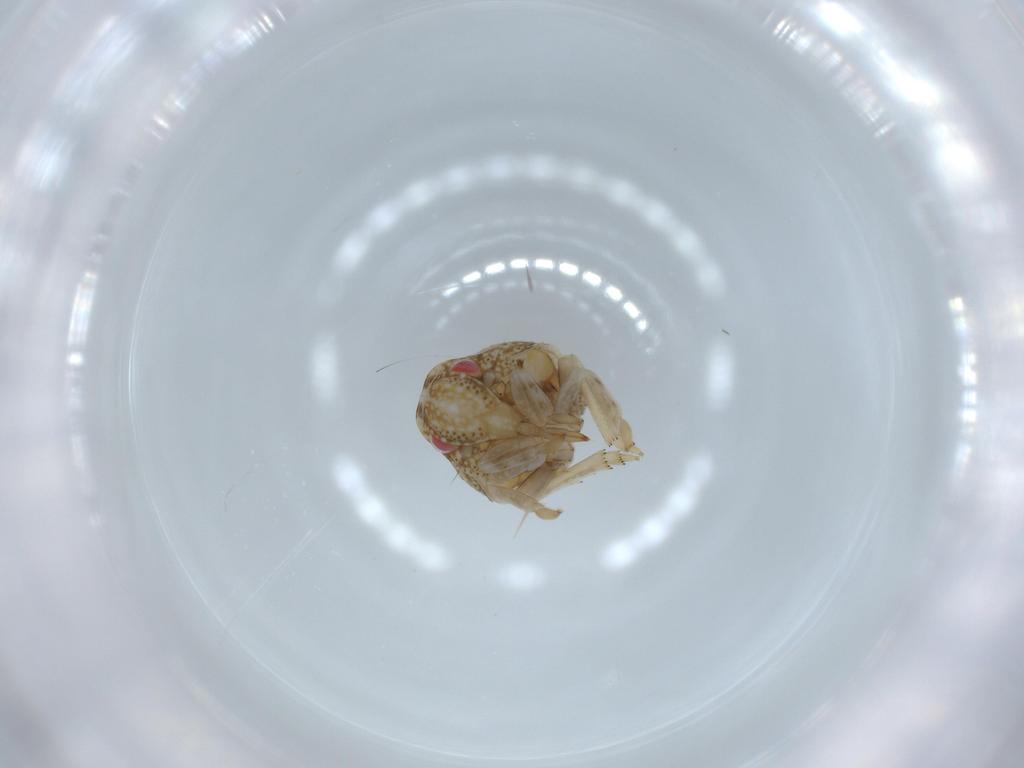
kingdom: Animalia
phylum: Arthropoda
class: Insecta
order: Hemiptera
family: Acanaloniidae
